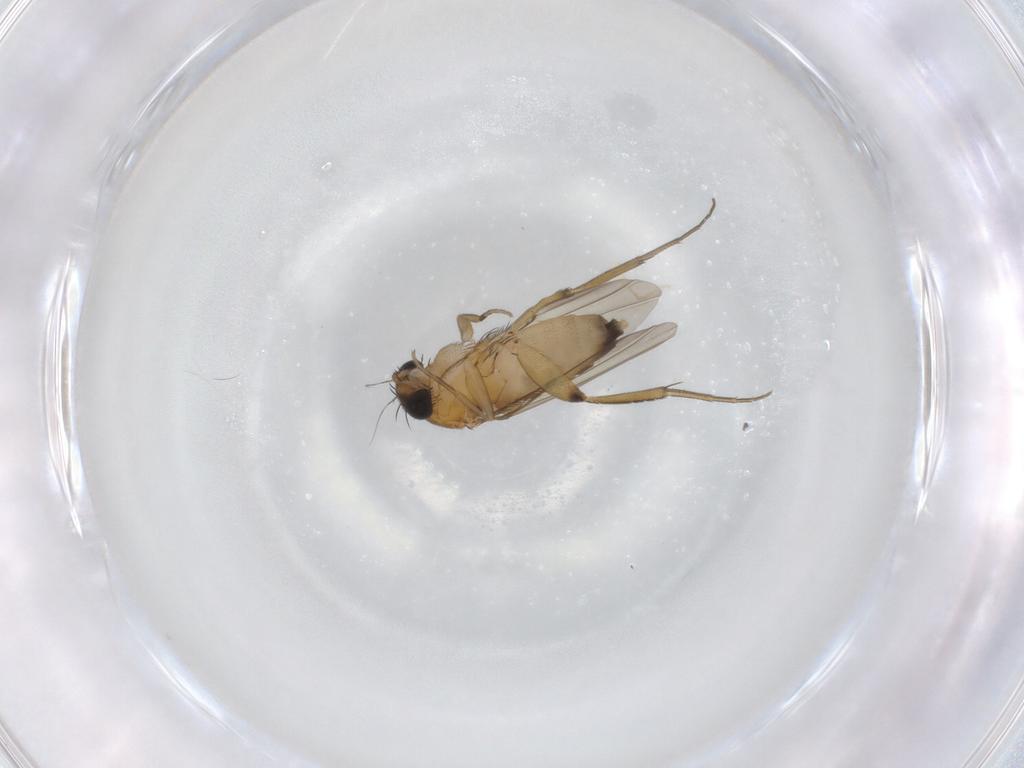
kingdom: Animalia
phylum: Arthropoda
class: Insecta
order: Diptera
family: Phoridae
